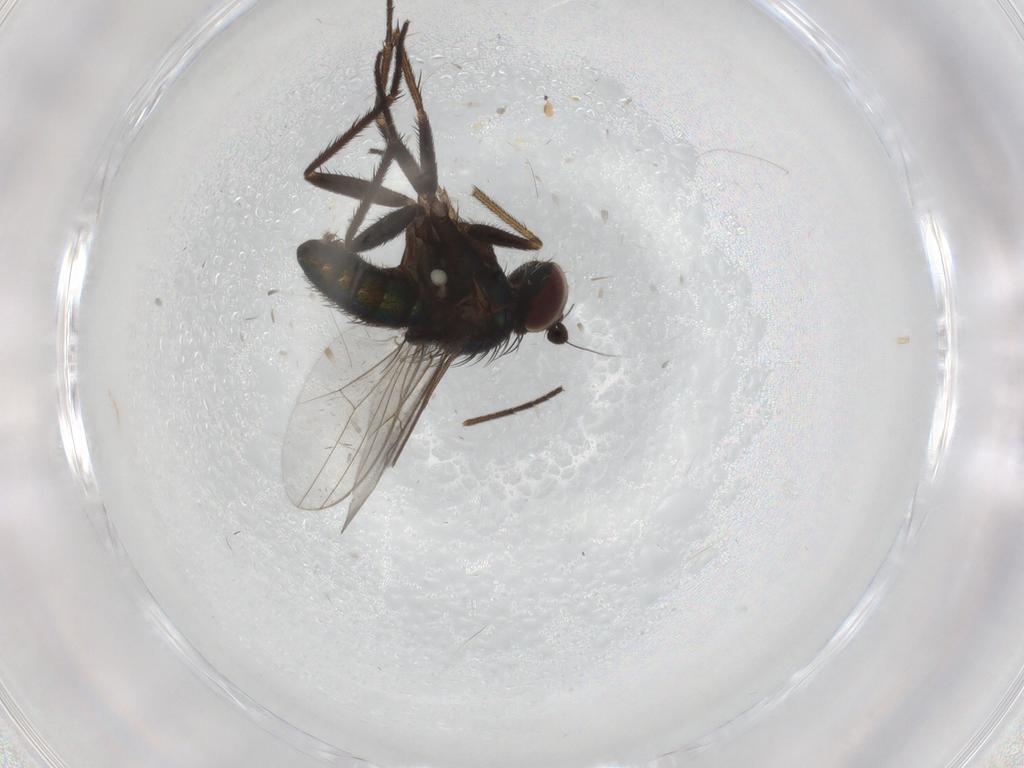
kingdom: Animalia
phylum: Arthropoda
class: Insecta
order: Diptera
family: Dolichopodidae
